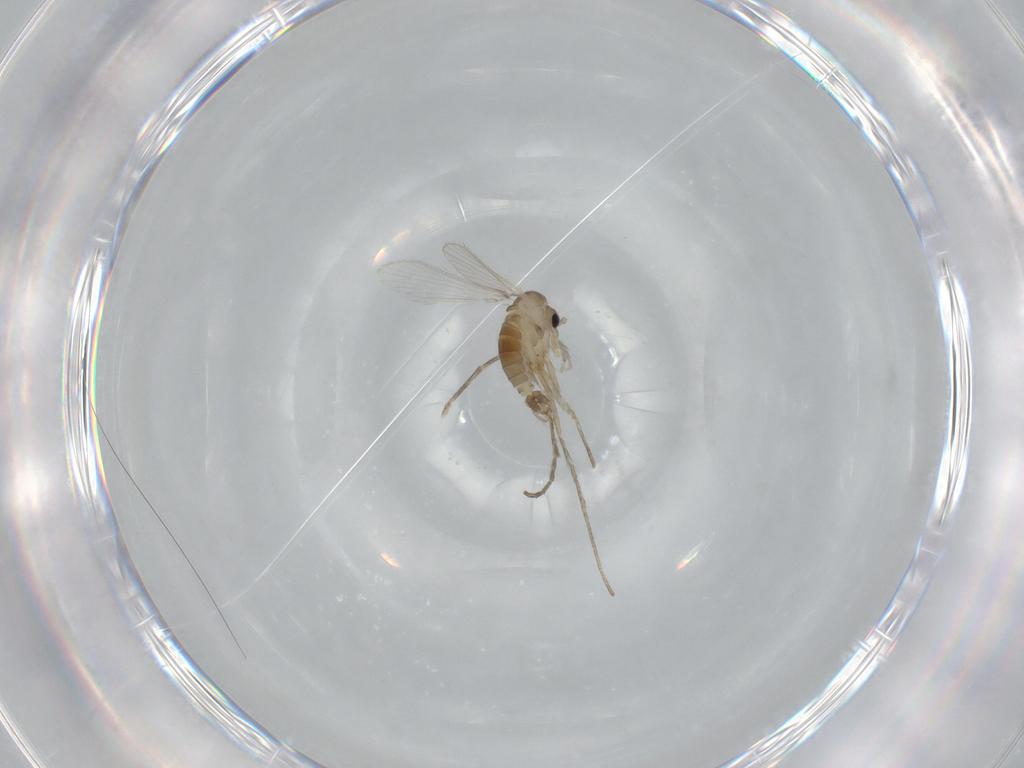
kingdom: Animalia
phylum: Arthropoda
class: Insecta
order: Diptera
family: Psychodidae
